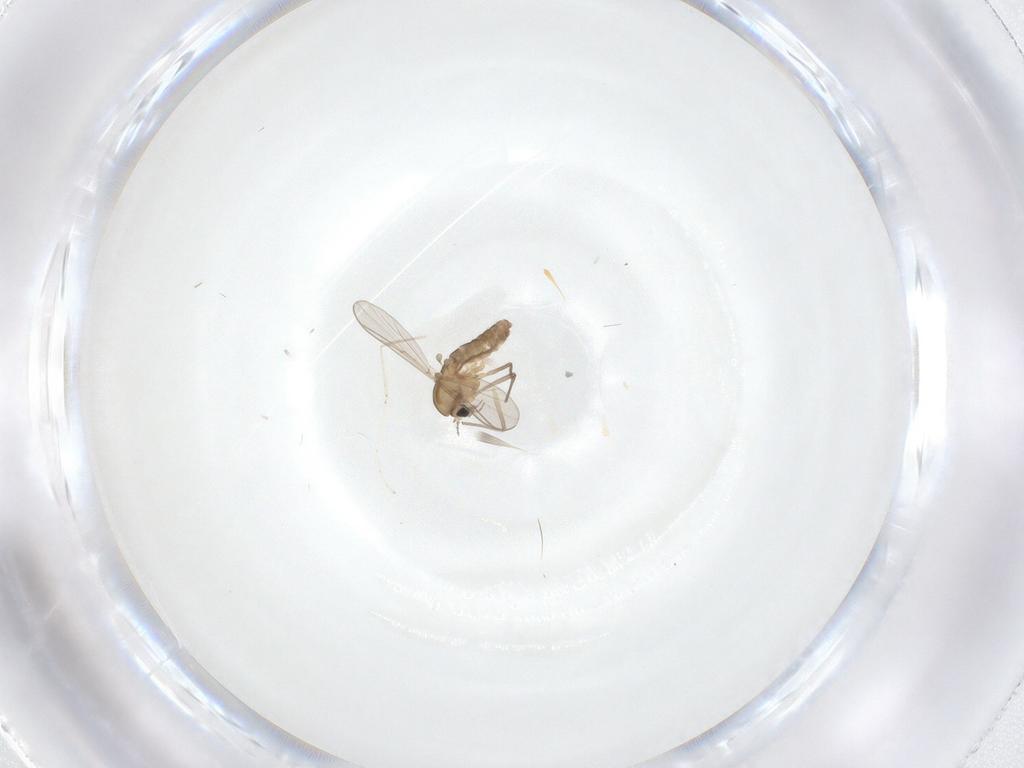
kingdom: Animalia
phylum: Arthropoda
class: Insecta
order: Diptera
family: Chironomidae
